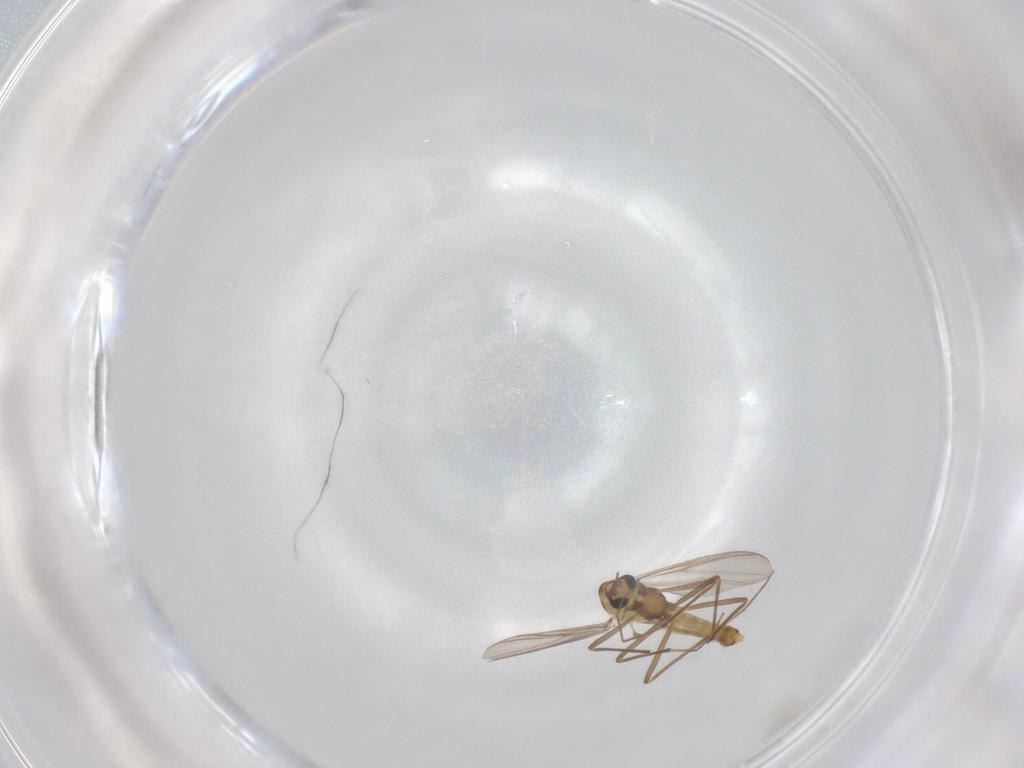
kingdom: Animalia
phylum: Arthropoda
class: Insecta
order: Diptera
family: Chironomidae
